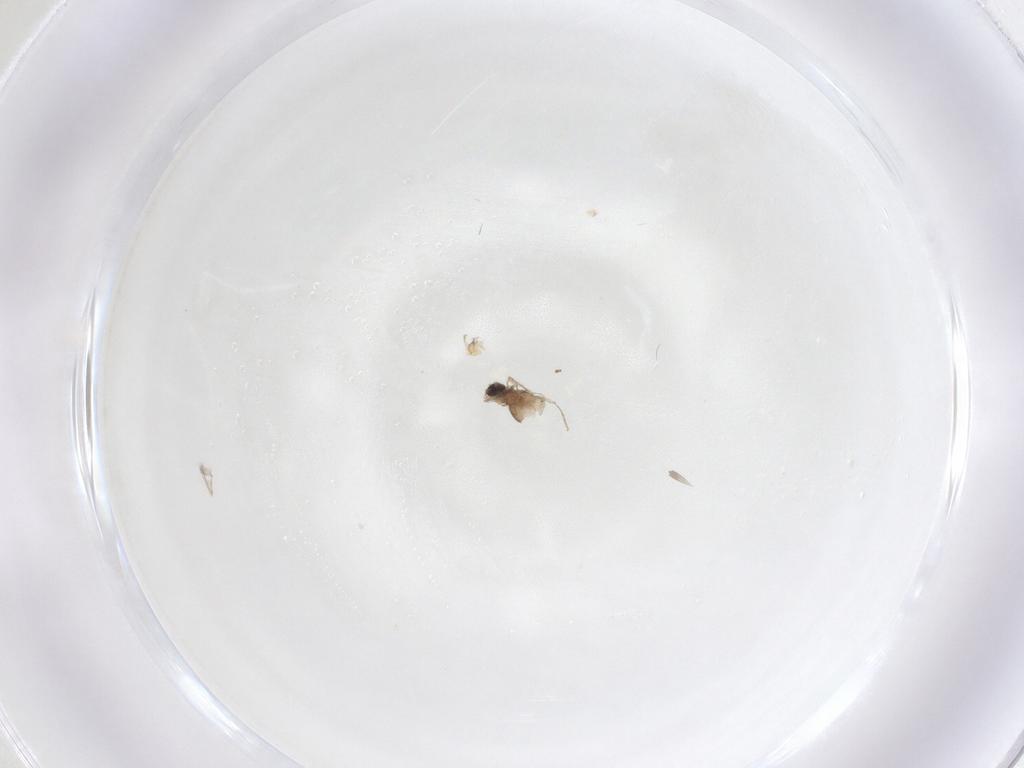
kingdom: Animalia
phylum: Arthropoda
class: Insecta
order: Diptera
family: Cecidomyiidae
